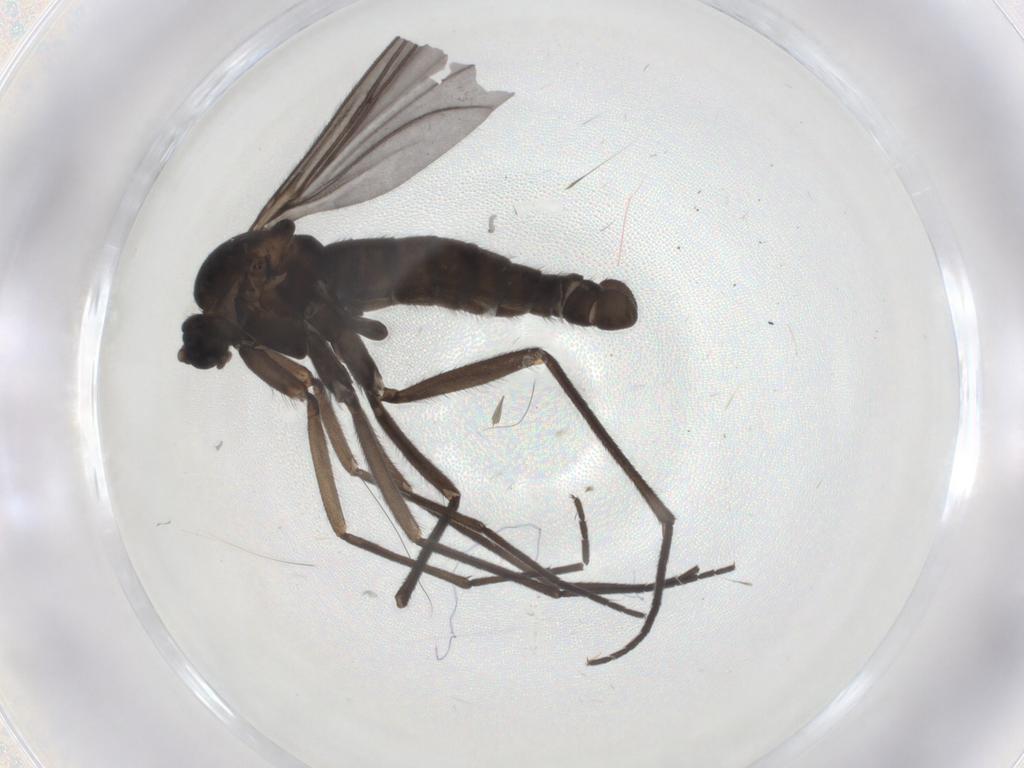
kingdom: Animalia
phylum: Arthropoda
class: Insecta
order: Diptera
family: Sciaridae
